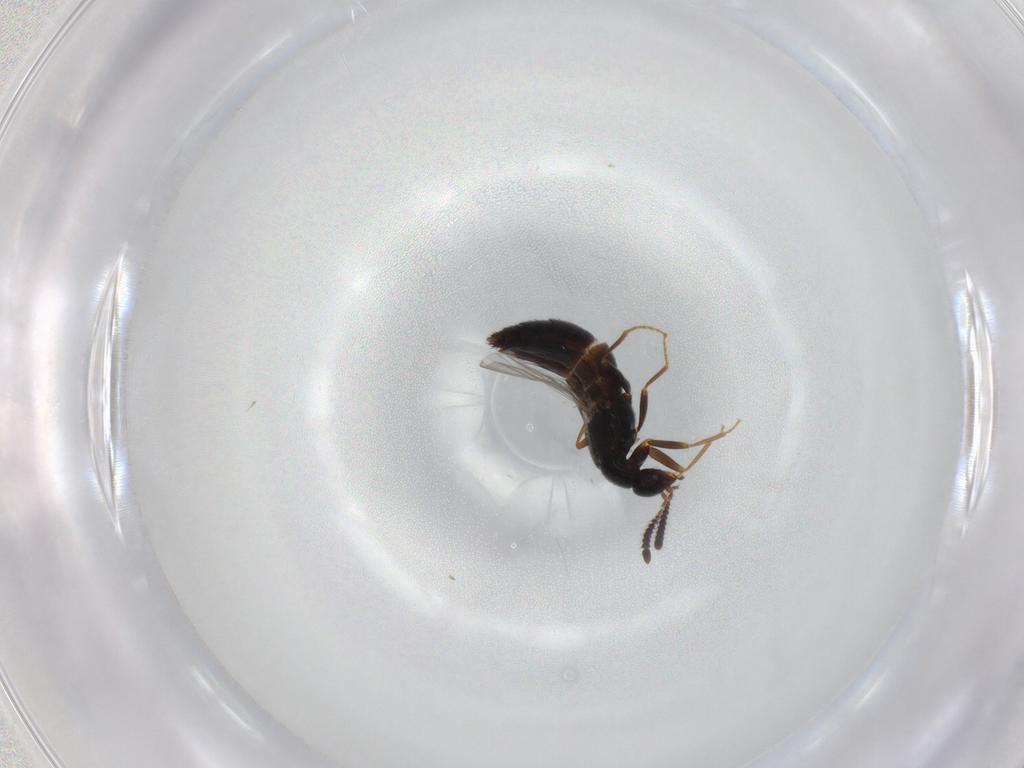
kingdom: Animalia
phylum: Arthropoda
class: Insecta
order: Coleoptera
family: Staphylinidae
